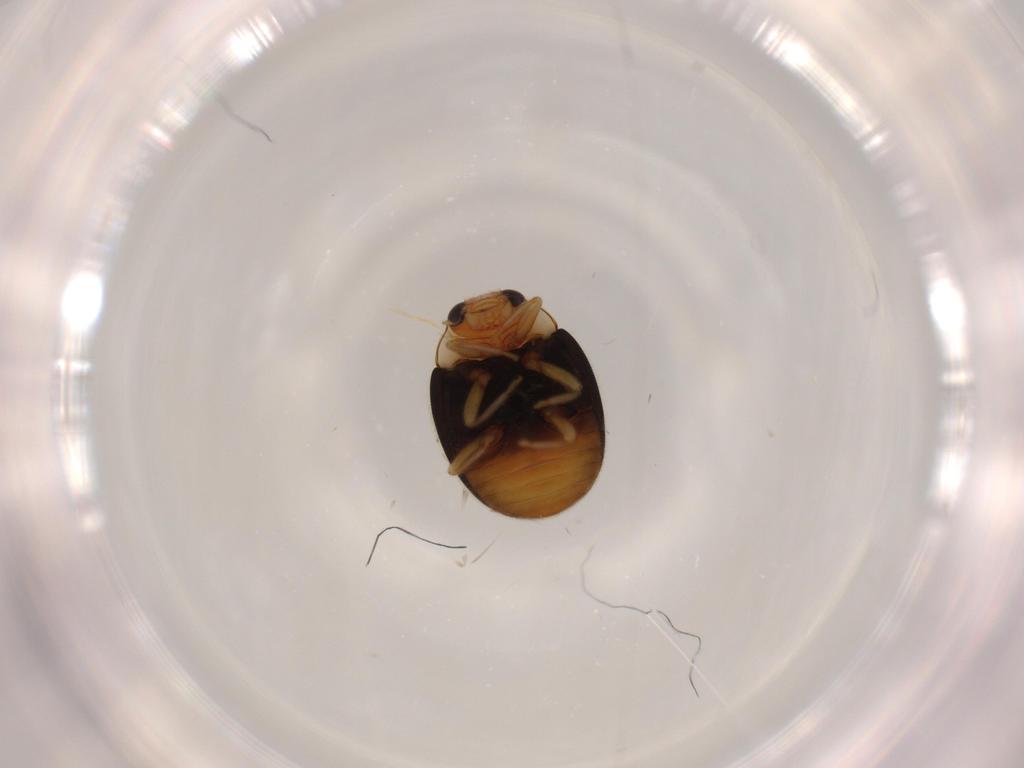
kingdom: Animalia
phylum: Arthropoda
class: Insecta
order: Coleoptera
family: Coccinellidae
